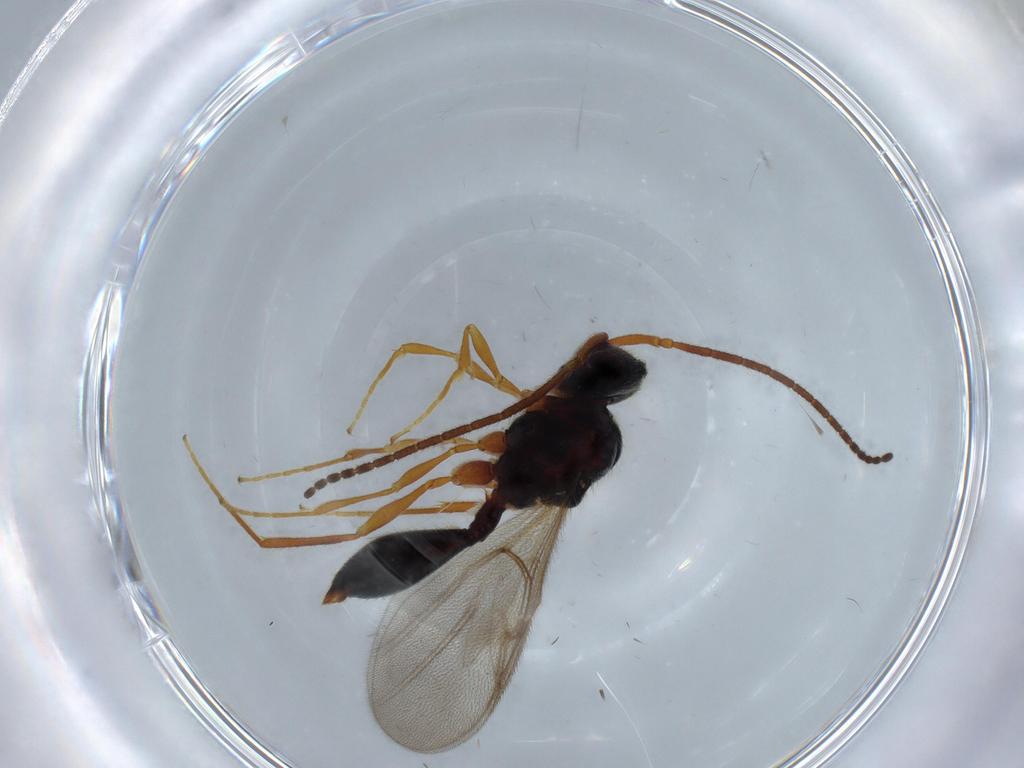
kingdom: Animalia
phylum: Arthropoda
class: Insecta
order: Hymenoptera
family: Diapriidae
